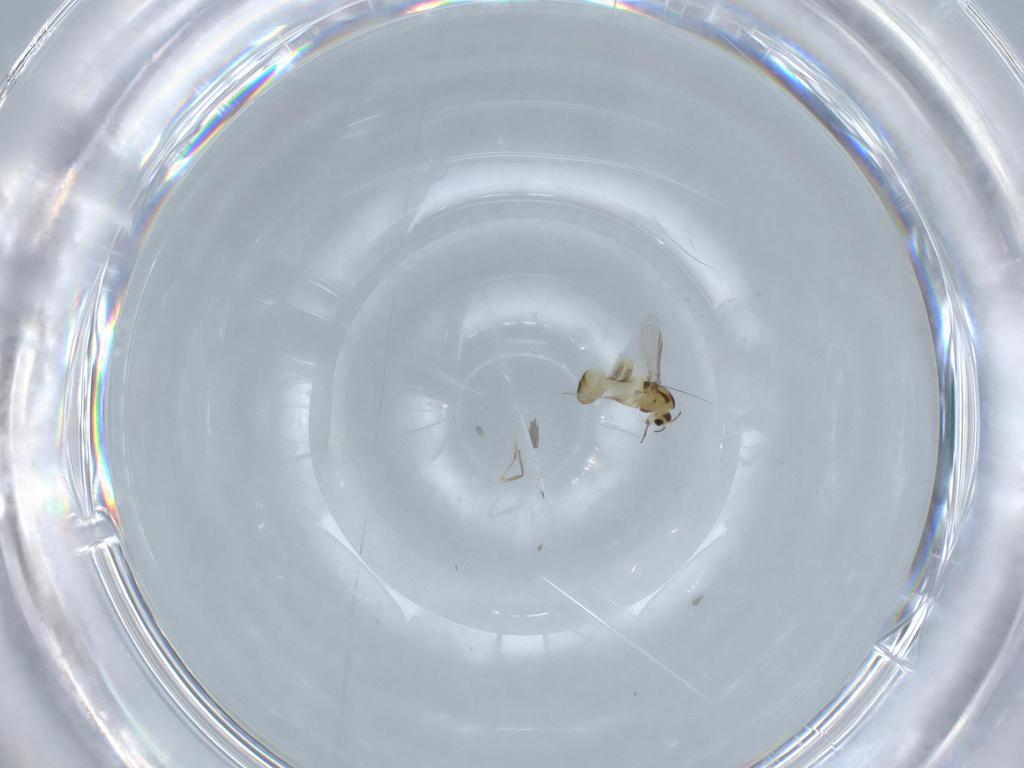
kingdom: Animalia
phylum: Arthropoda
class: Insecta
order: Diptera
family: Chironomidae
